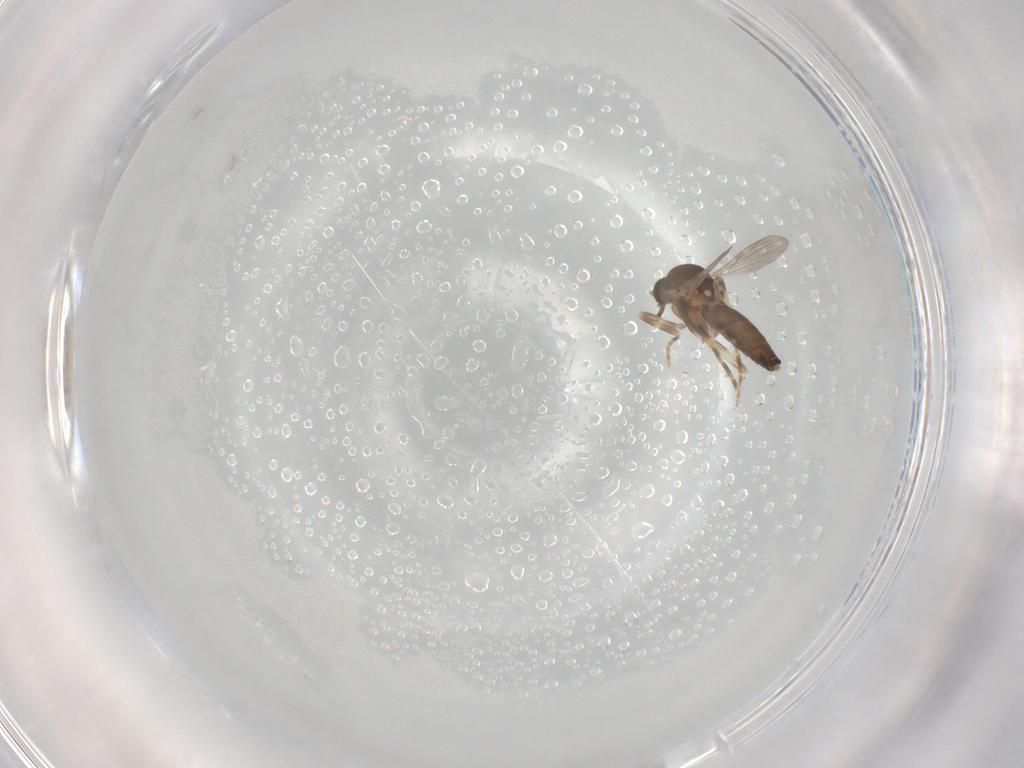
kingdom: Animalia
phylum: Arthropoda
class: Insecta
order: Diptera
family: Ceratopogonidae
